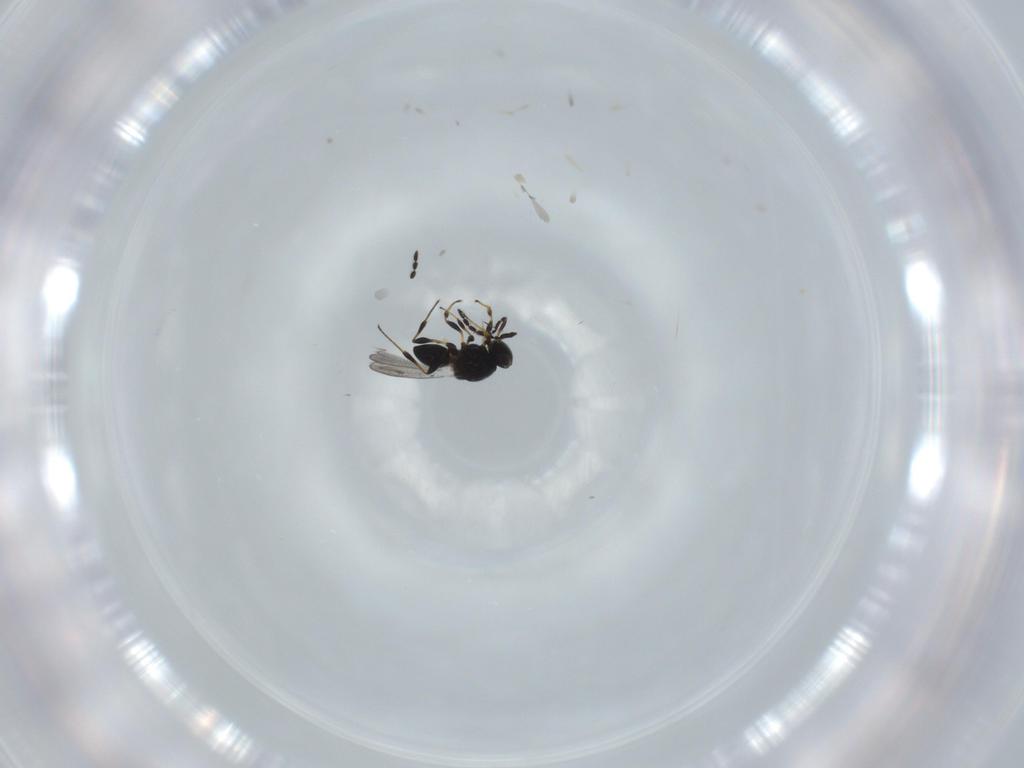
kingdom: Animalia
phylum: Arthropoda
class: Insecta
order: Hymenoptera
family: Platygastridae
